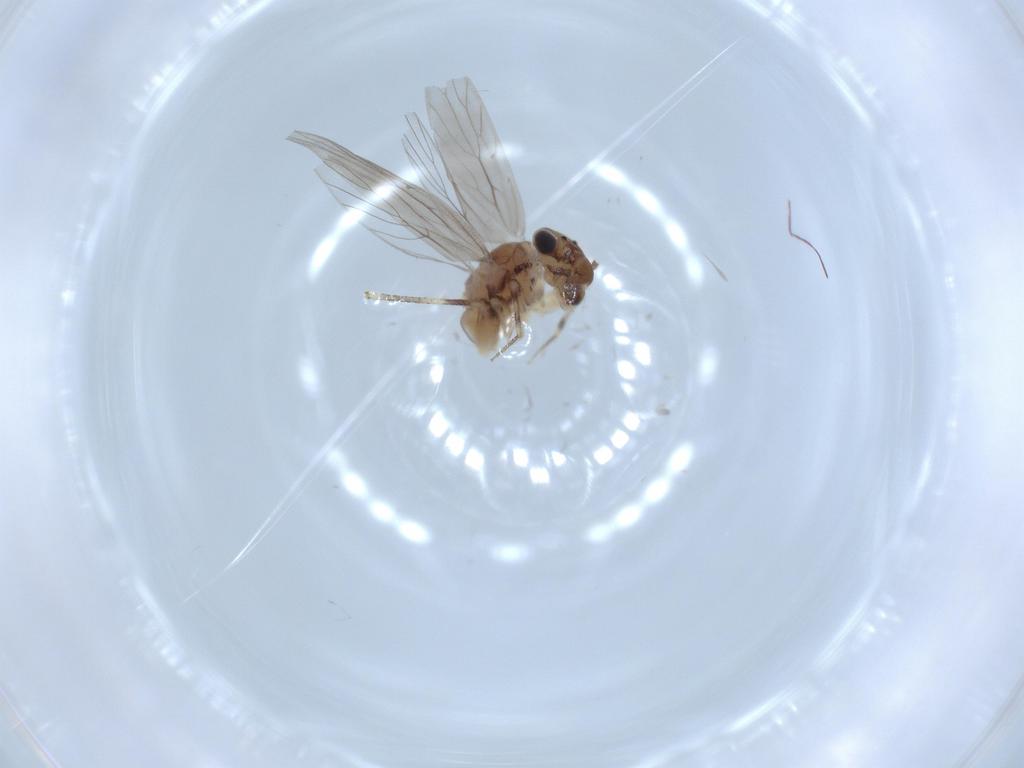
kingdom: Animalia
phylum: Arthropoda
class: Insecta
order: Psocodea
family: Lepidopsocidae
